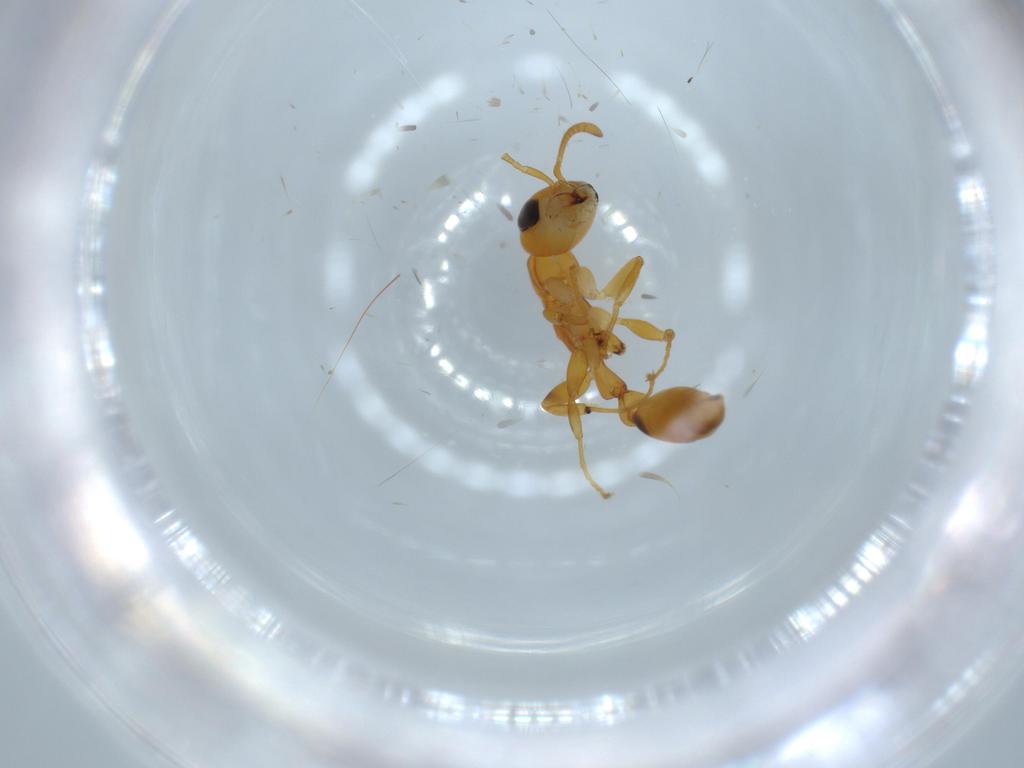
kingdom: Animalia
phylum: Arthropoda
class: Insecta
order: Hymenoptera
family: Formicidae
